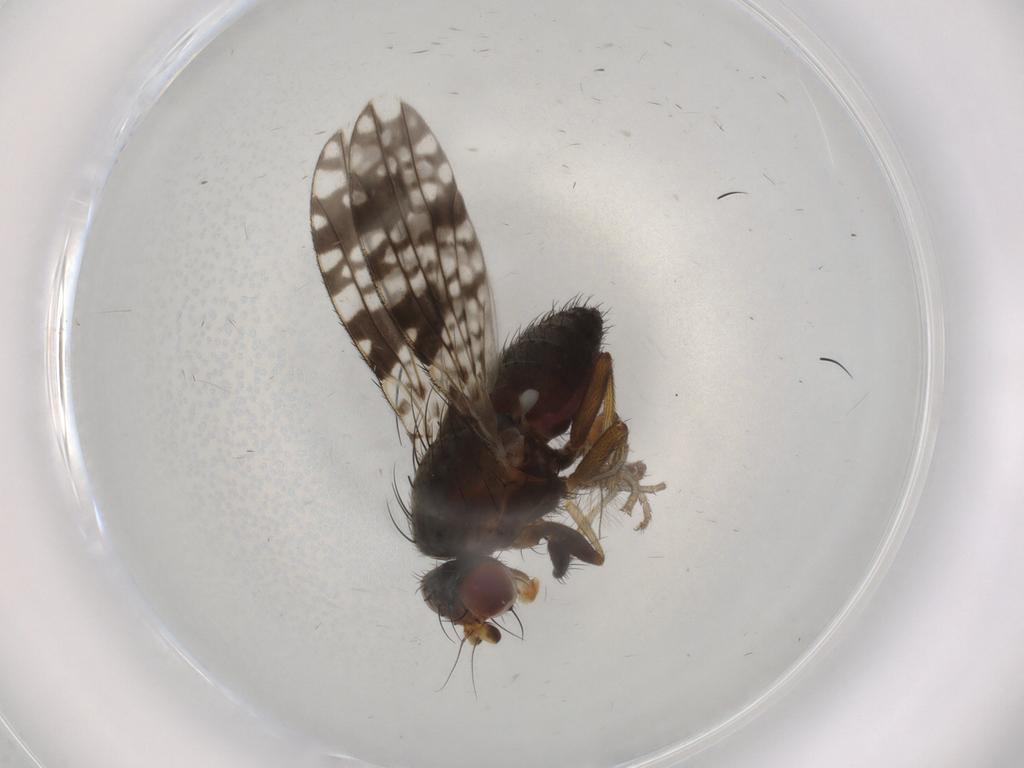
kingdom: Animalia
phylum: Arthropoda
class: Insecta
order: Diptera
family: Tephritidae
